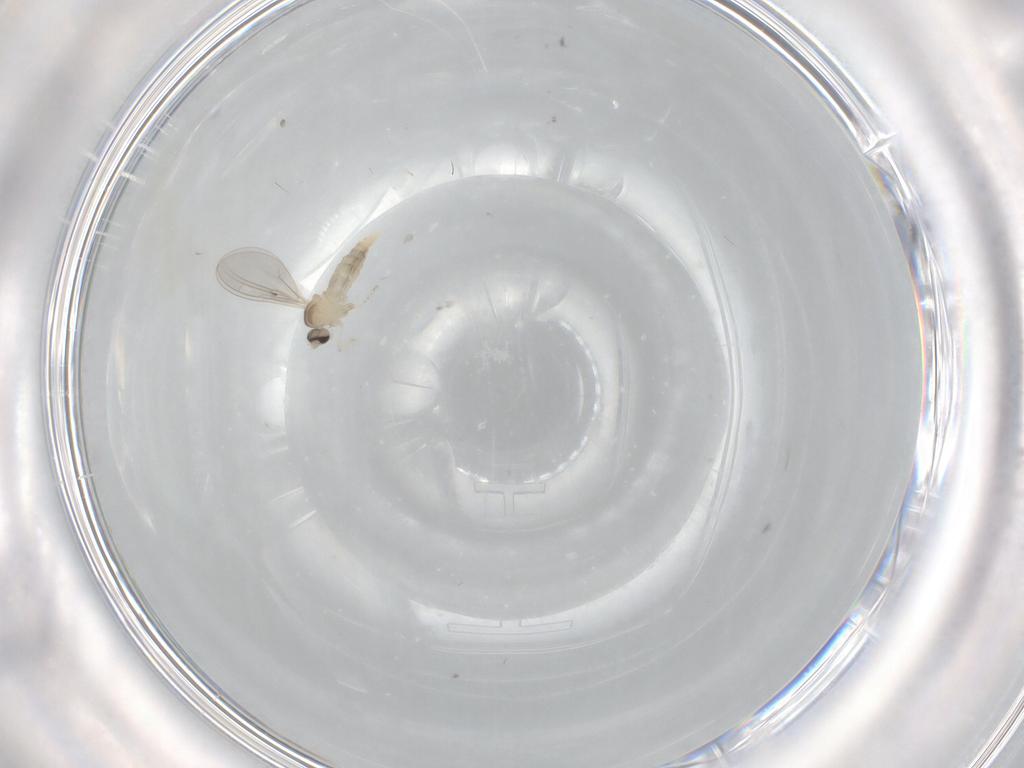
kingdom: Animalia
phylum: Arthropoda
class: Insecta
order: Diptera
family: Cecidomyiidae
